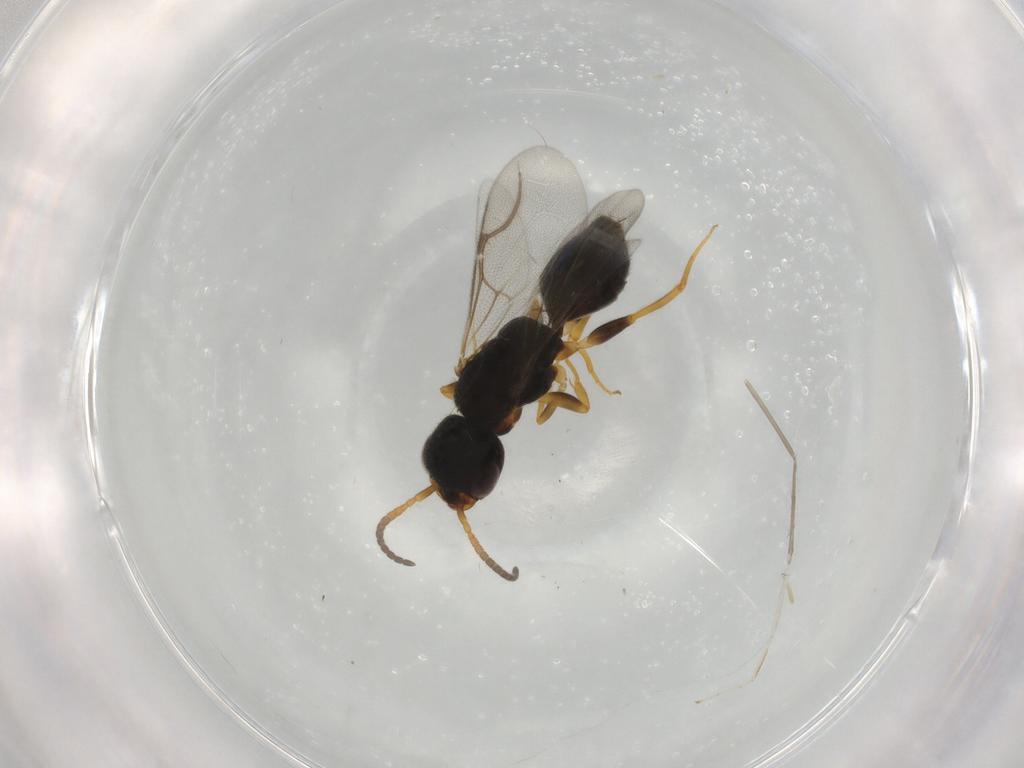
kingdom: Animalia
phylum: Arthropoda
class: Insecta
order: Hymenoptera
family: Bethylidae
